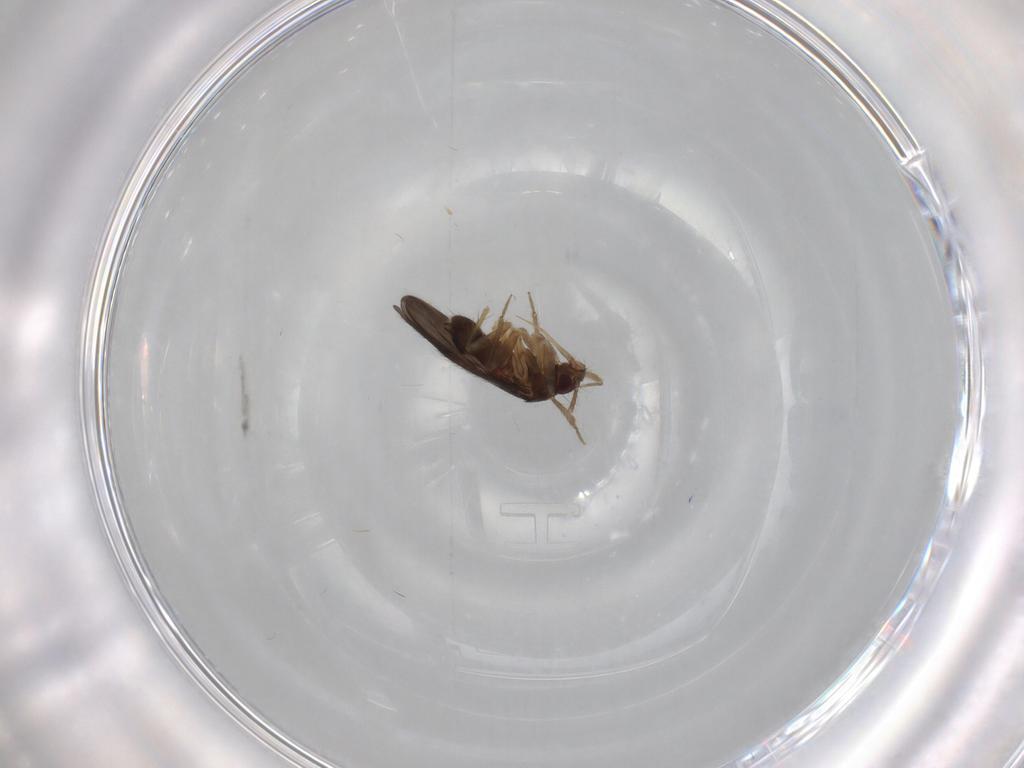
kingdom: Animalia
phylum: Arthropoda
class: Insecta
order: Hemiptera
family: Ceratocombidae
